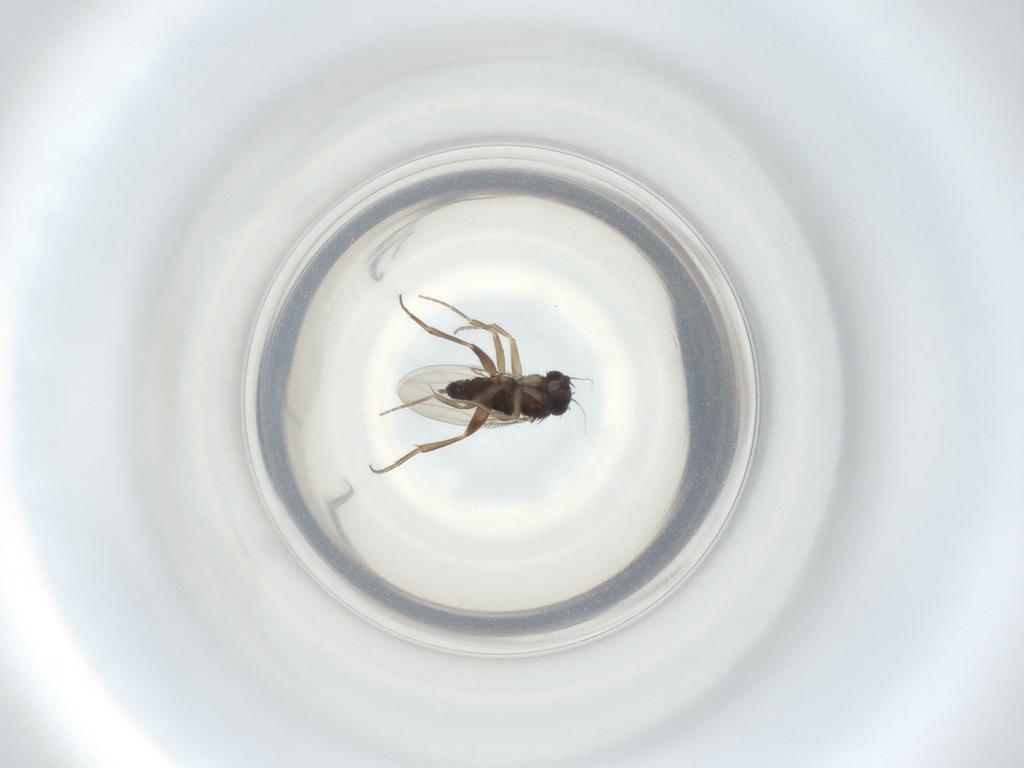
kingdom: Animalia
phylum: Arthropoda
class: Insecta
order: Diptera
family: Phoridae
